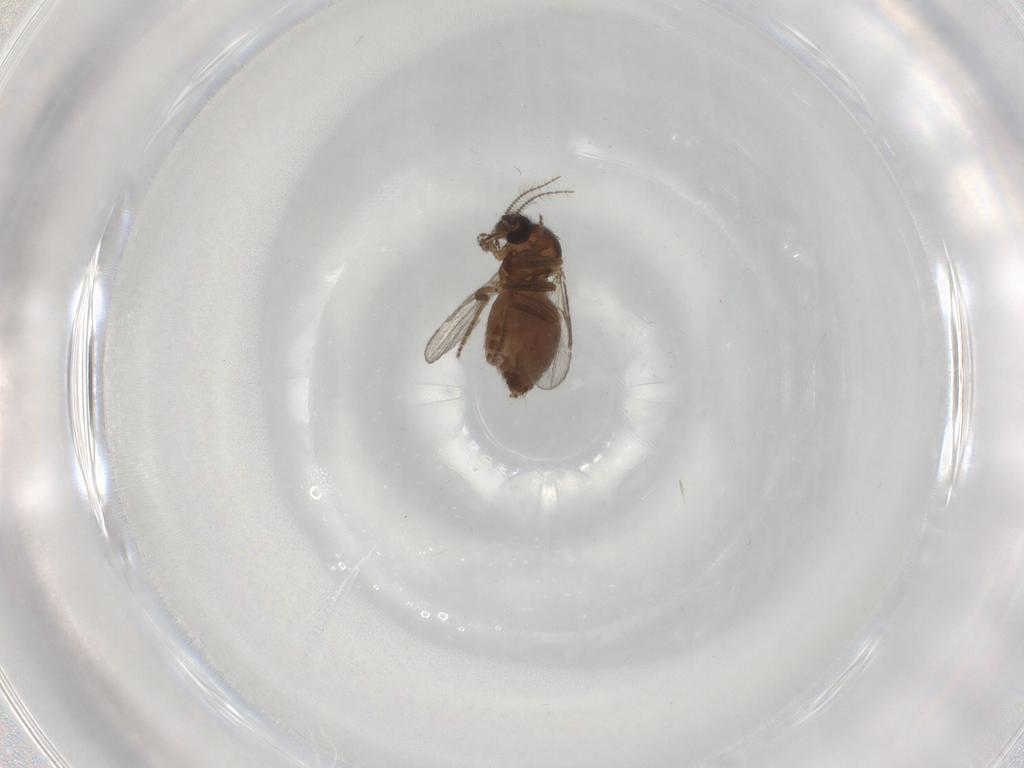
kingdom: Animalia
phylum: Arthropoda
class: Insecta
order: Diptera
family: Ceratopogonidae
